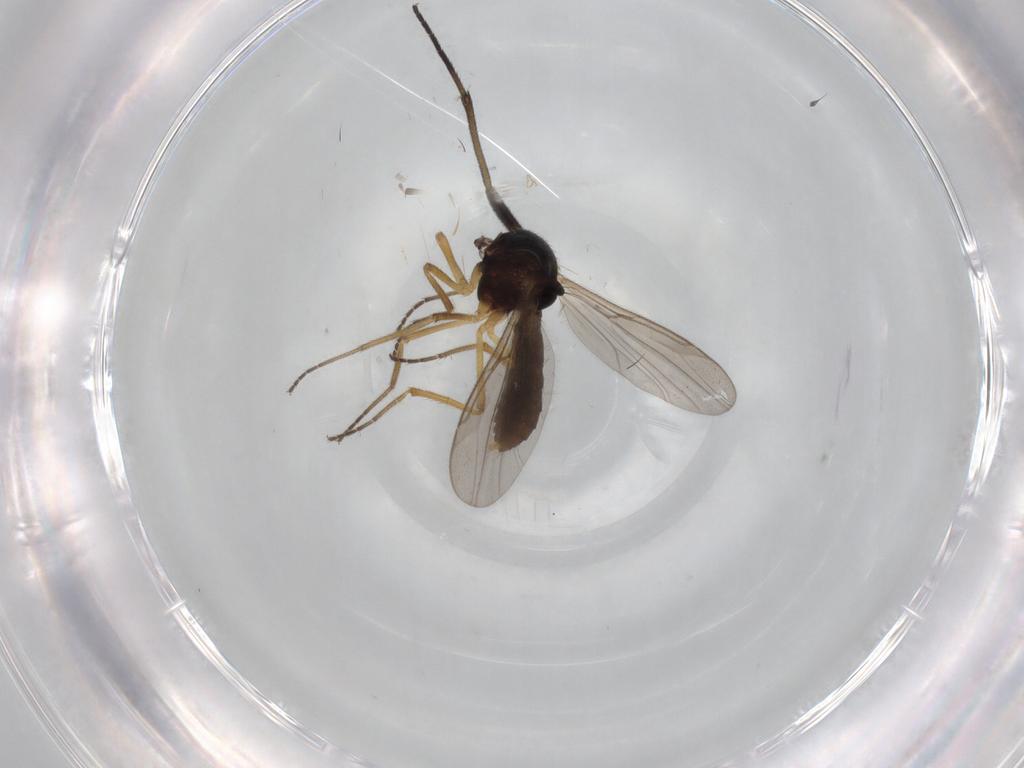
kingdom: Animalia
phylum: Arthropoda
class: Insecta
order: Diptera
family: Ceratopogonidae
